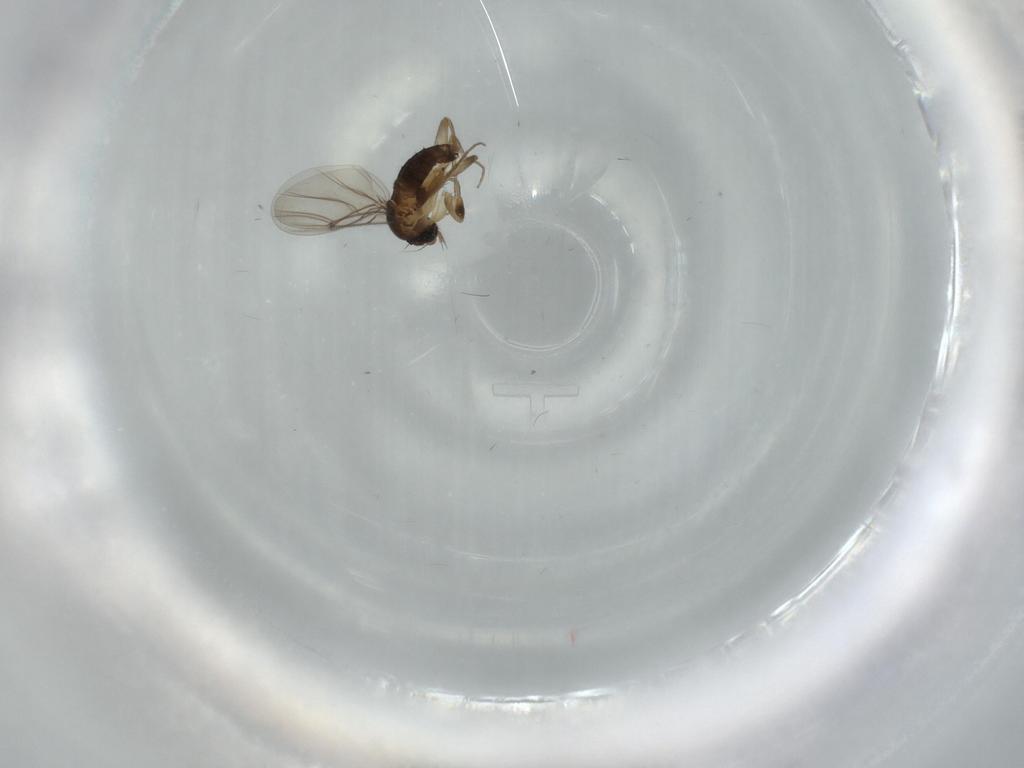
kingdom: Animalia
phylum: Arthropoda
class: Insecta
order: Diptera
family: Phoridae
